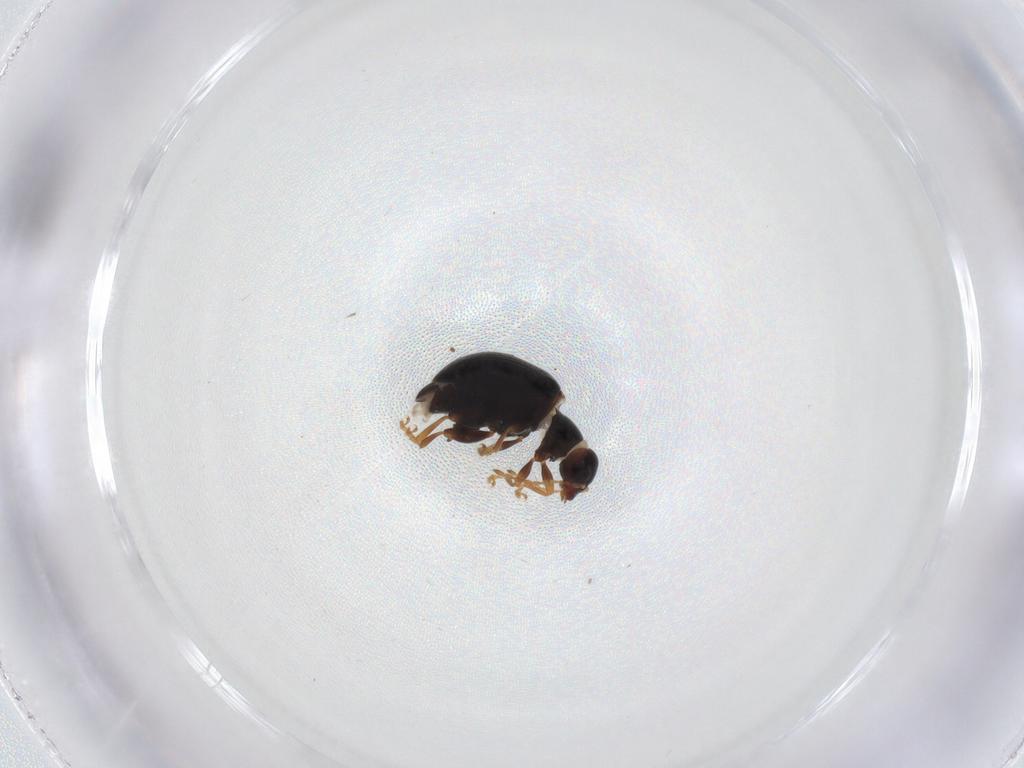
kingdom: Animalia
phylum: Arthropoda
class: Insecta
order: Coleoptera
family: Chrysomelidae
